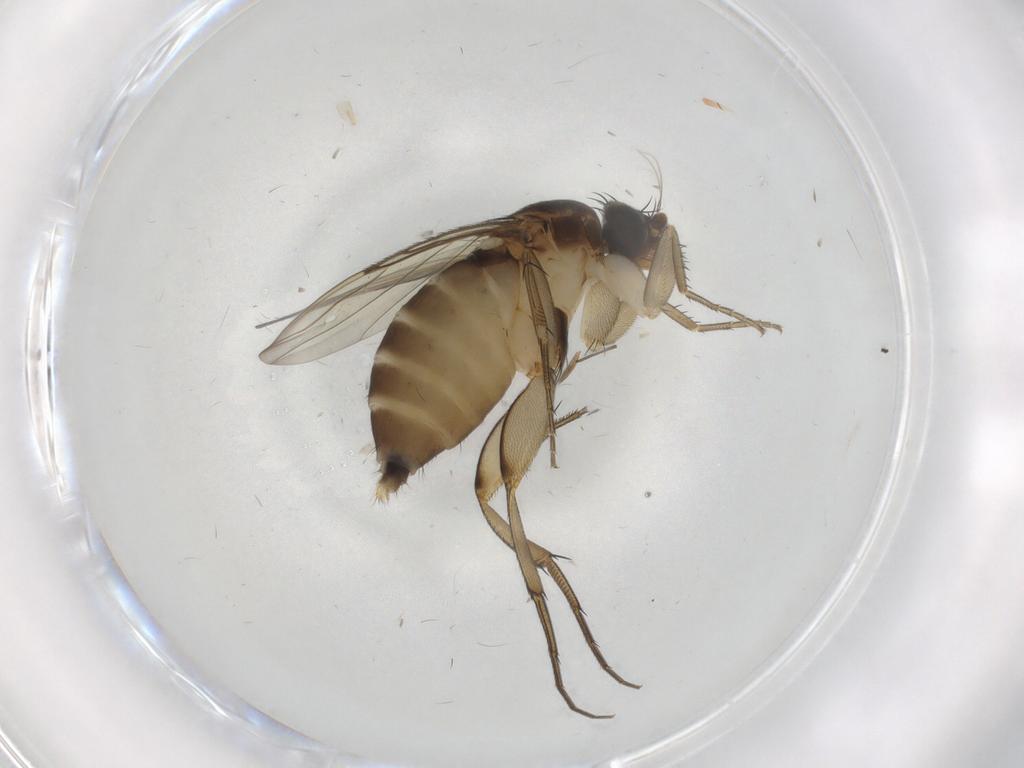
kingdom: Animalia
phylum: Arthropoda
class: Insecta
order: Diptera
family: Phoridae
